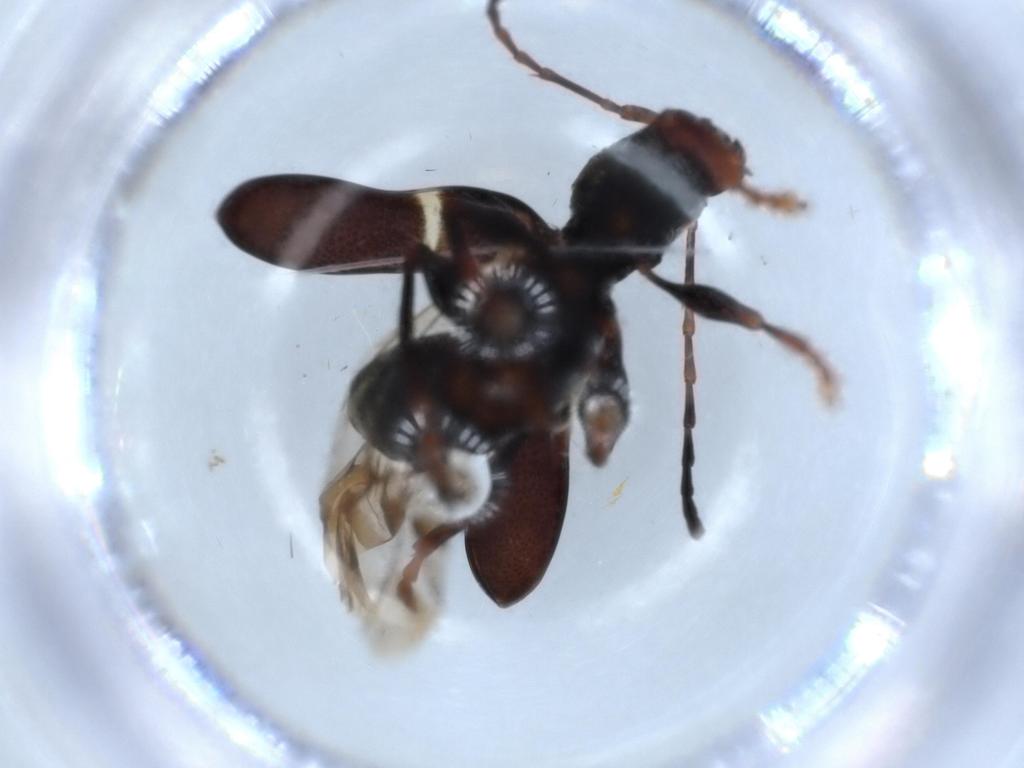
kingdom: Animalia
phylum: Arthropoda
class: Insecta
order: Coleoptera
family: Cerambycidae
